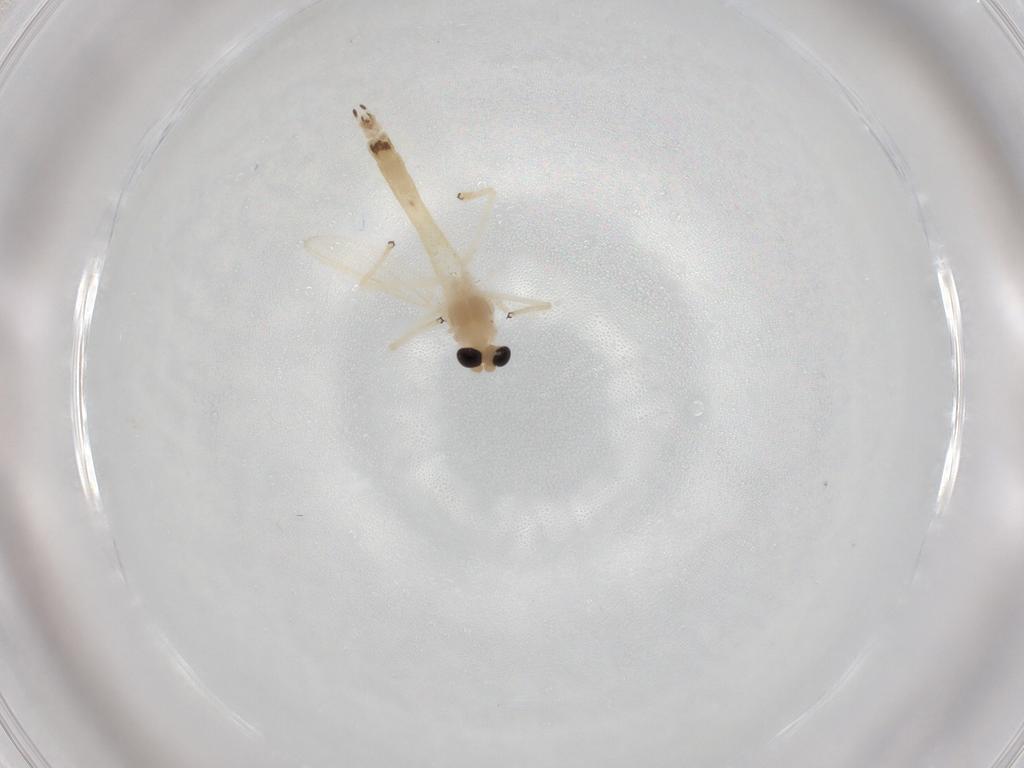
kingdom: Animalia
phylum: Arthropoda
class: Insecta
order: Diptera
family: Chironomidae
